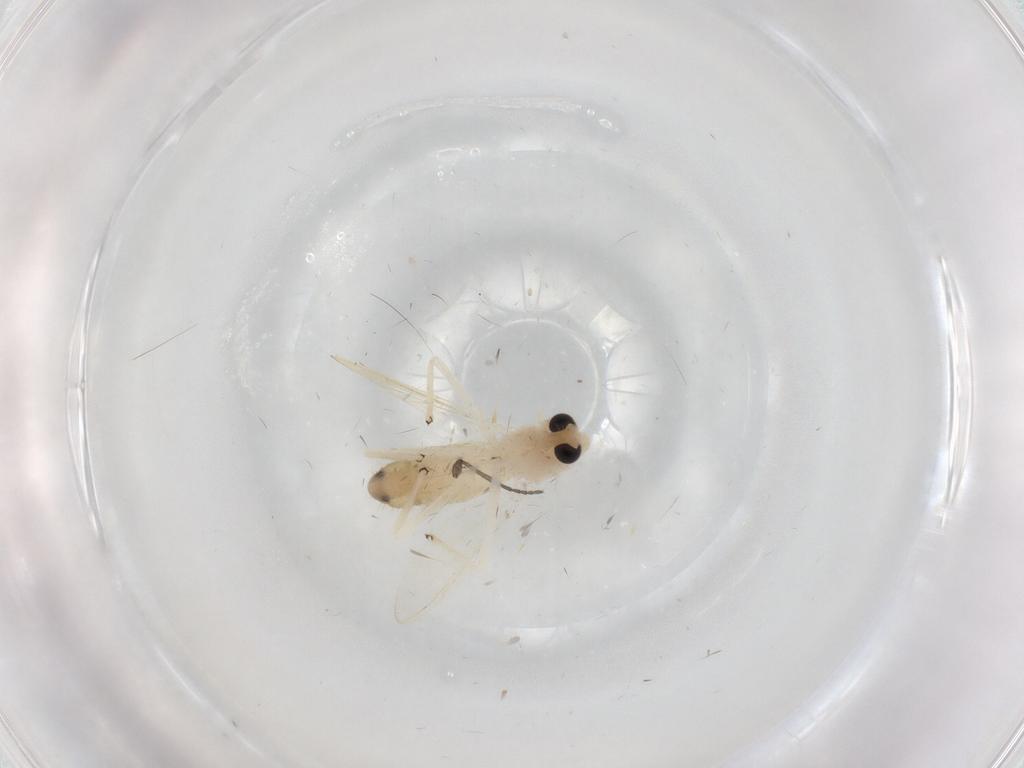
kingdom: Animalia
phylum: Arthropoda
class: Insecta
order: Diptera
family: Chironomidae
